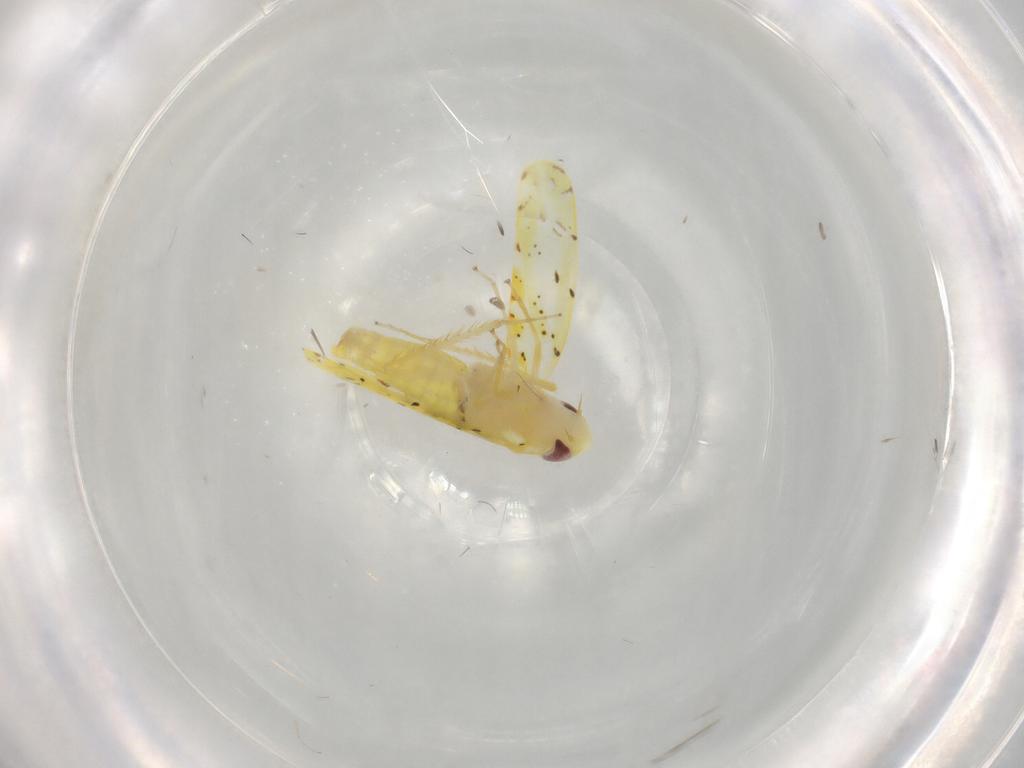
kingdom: Animalia
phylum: Arthropoda
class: Insecta
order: Hemiptera
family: Cicadellidae
